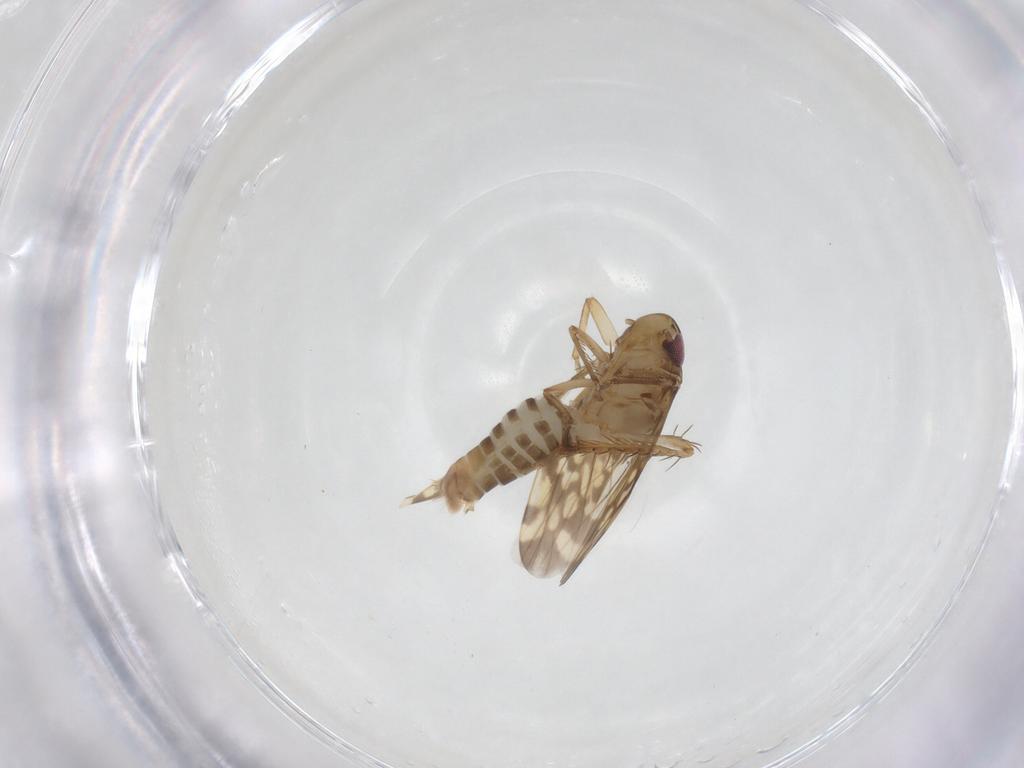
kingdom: Animalia
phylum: Arthropoda
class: Insecta
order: Hemiptera
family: Cicadellidae
